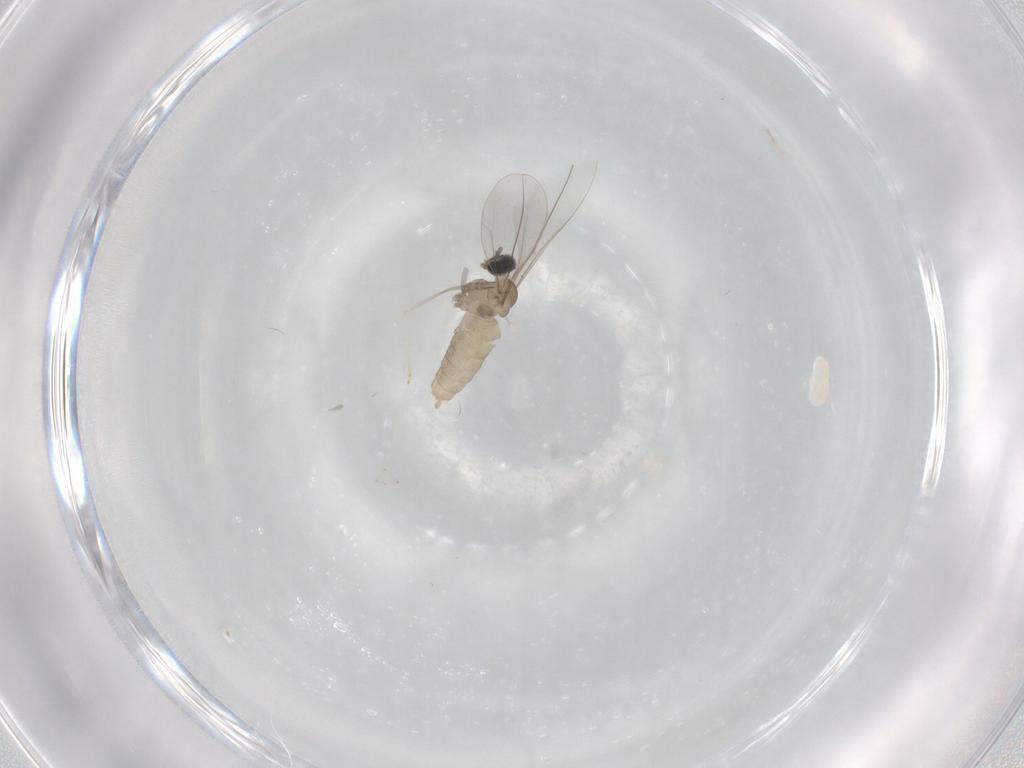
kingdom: Animalia
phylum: Arthropoda
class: Insecta
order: Diptera
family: Cecidomyiidae
